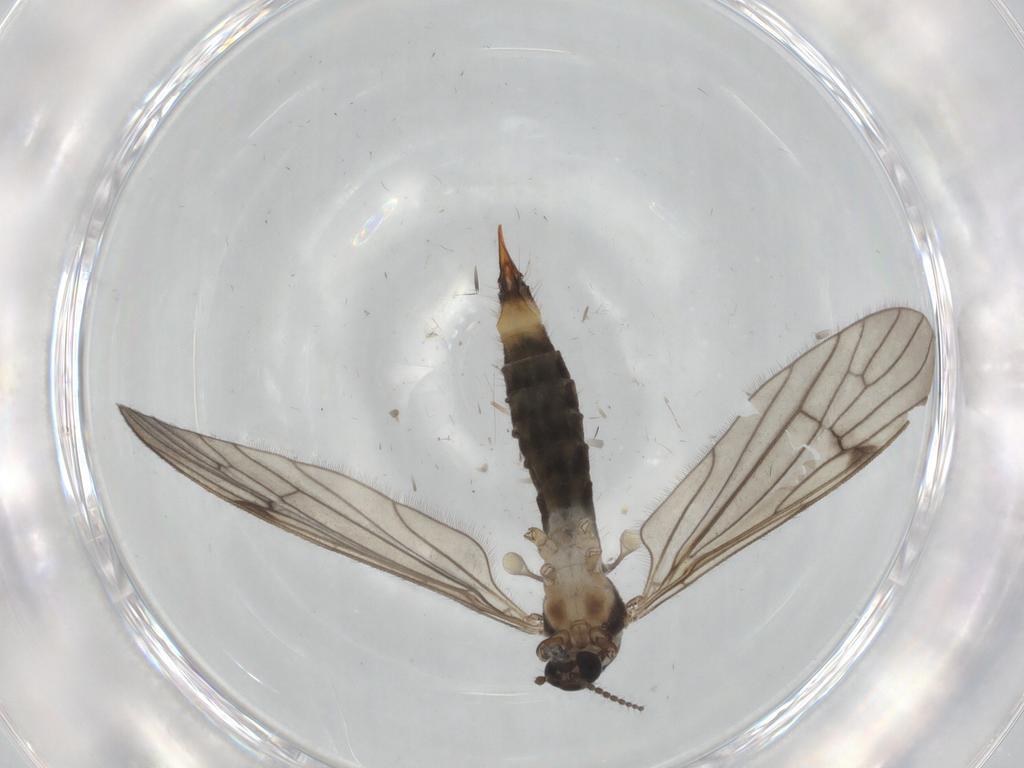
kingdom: Animalia
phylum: Arthropoda
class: Insecta
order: Diptera
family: Limoniidae
